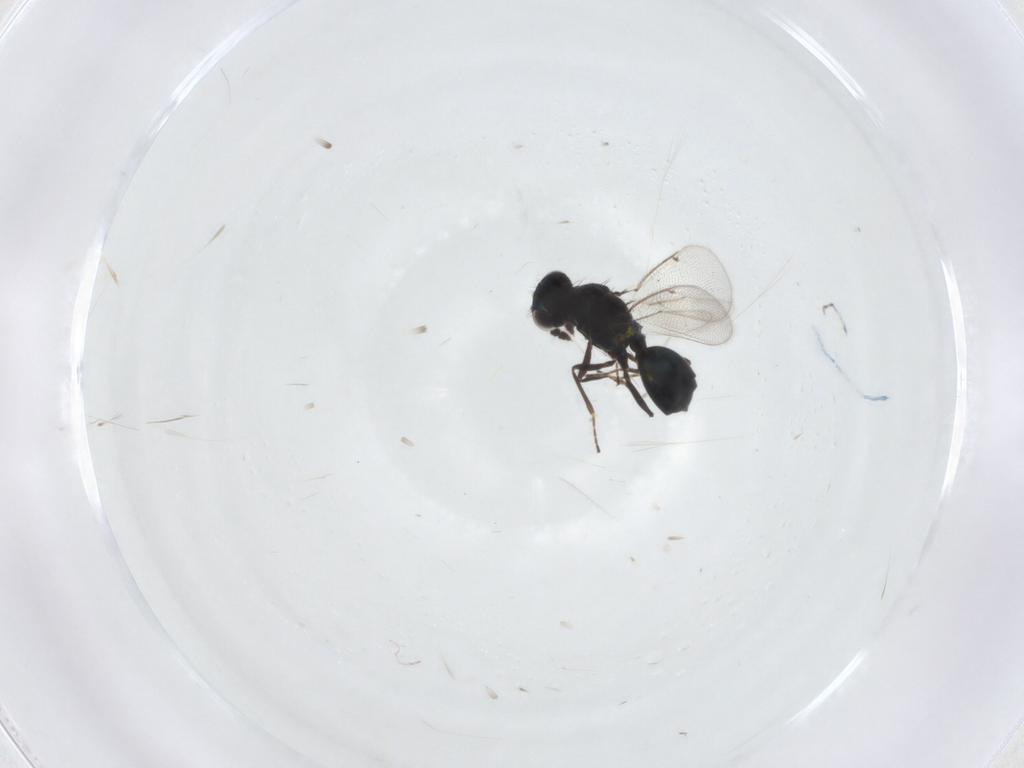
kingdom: Animalia
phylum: Arthropoda
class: Insecta
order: Hymenoptera
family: Eulophidae
